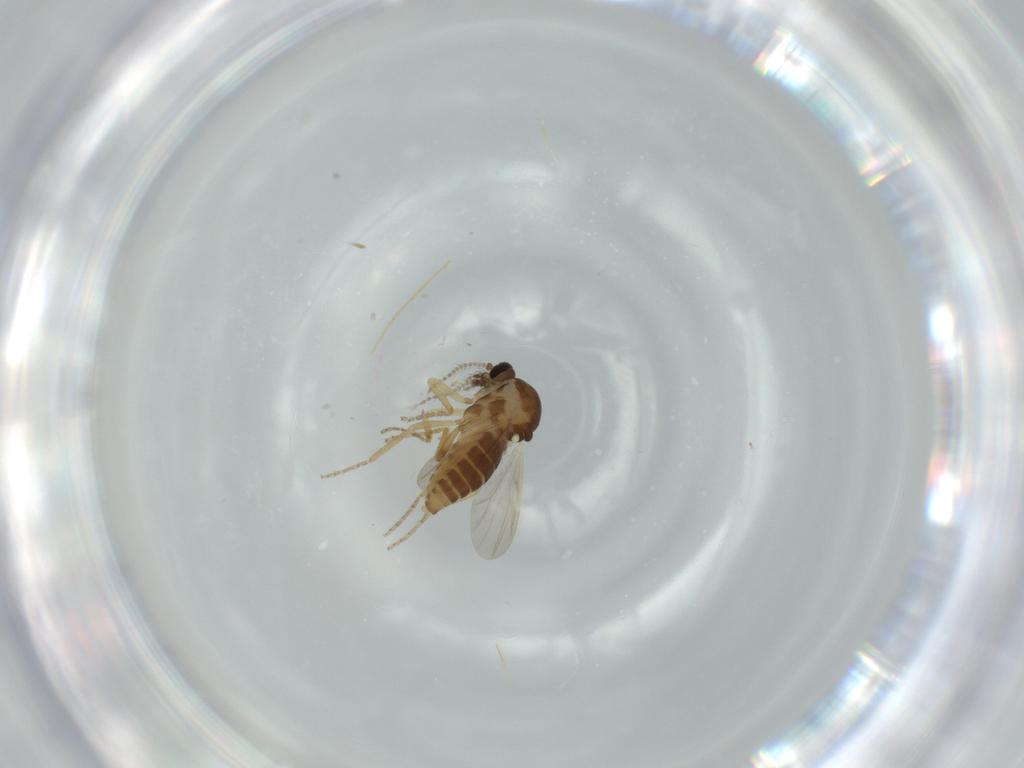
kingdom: Animalia
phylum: Arthropoda
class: Insecta
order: Diptera
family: Ceratopogonidae
